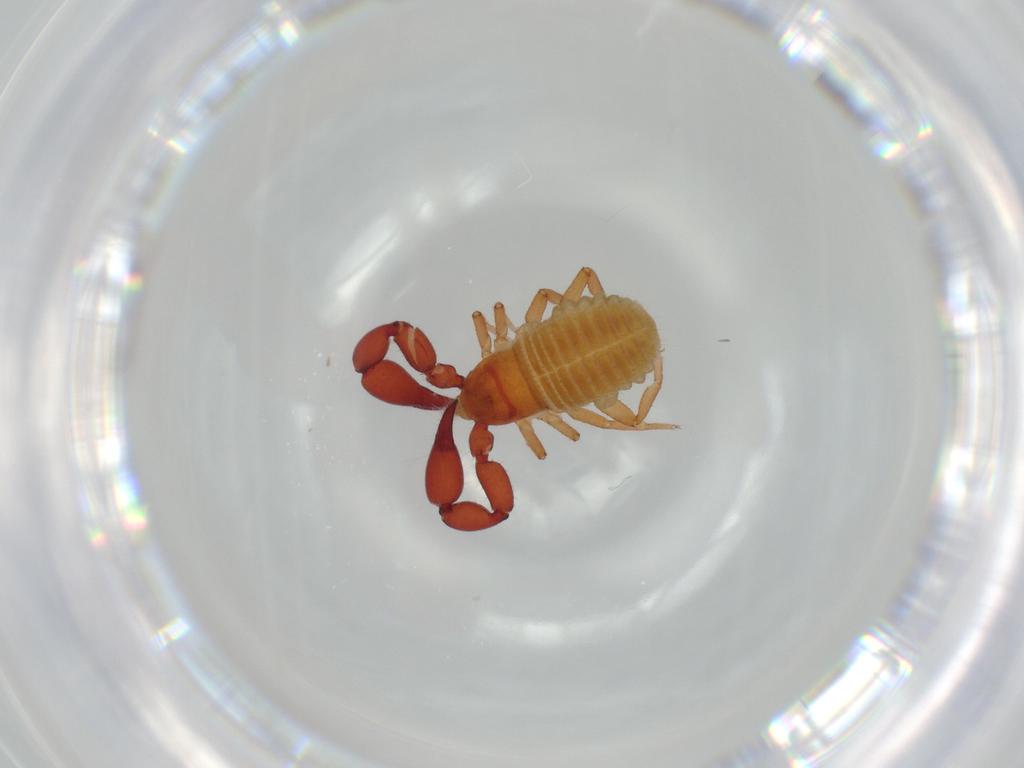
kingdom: Animalia
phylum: Arthropoda
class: Arachnida
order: Pseudoscorpiones
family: Chernetidae
